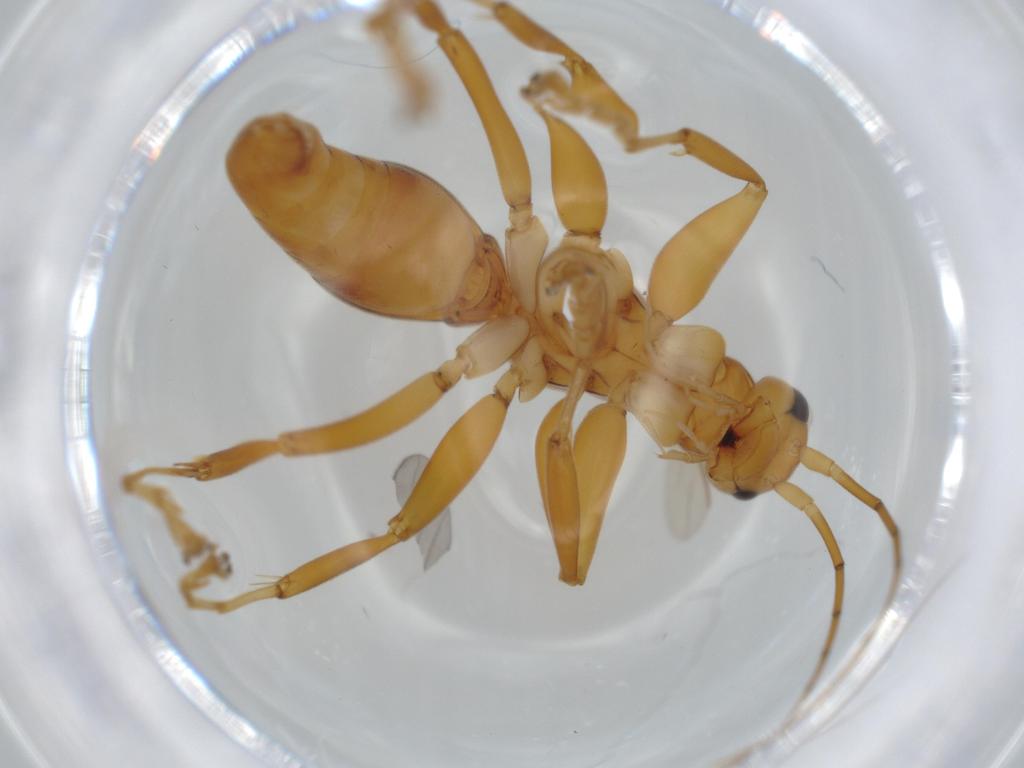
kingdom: Animalia
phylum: Arthropoda
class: Insecta
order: Hymenoptera
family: Rhopalosomatidae
